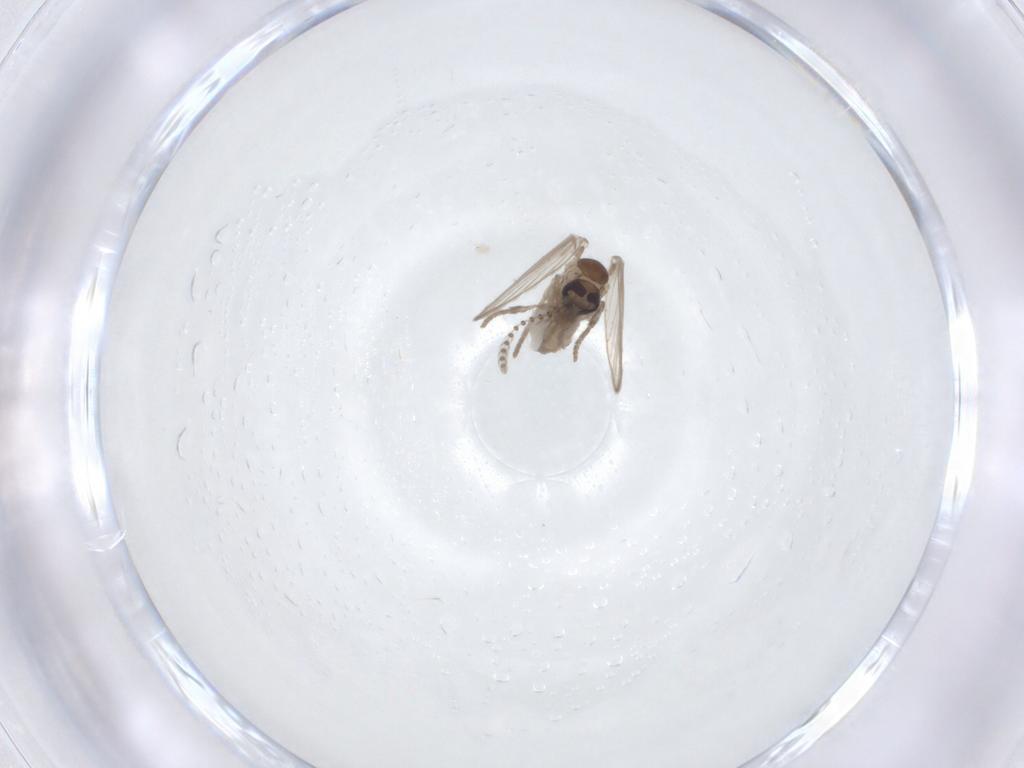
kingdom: Animalia
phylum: Arthropoda
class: Insecta
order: Diptera
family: Psychodidae
